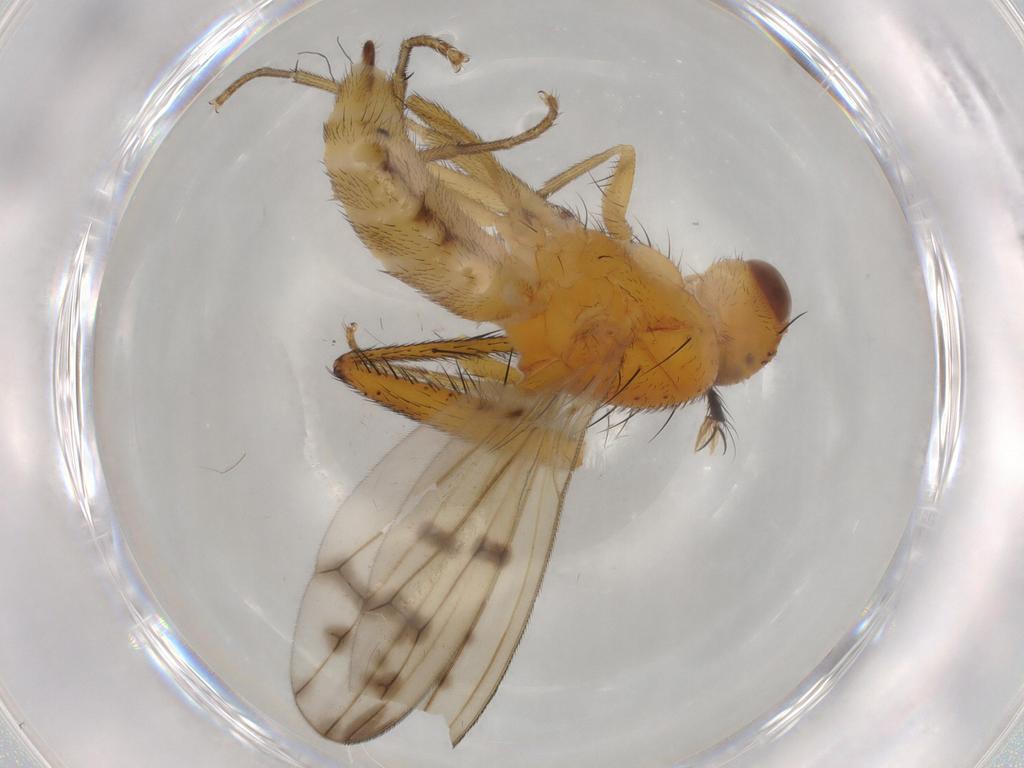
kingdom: Animalia
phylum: Arthropoda
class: Insecta
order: Diptera
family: Opomyzidae
